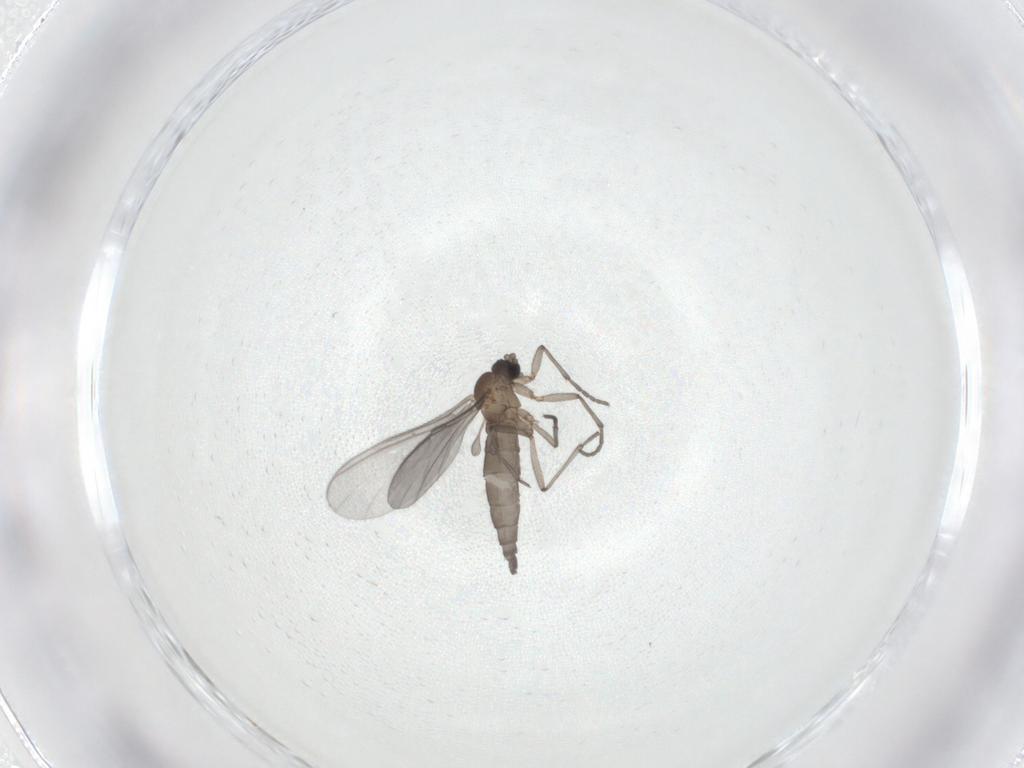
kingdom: Animalia
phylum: Arthropoda
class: Insecta
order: Diptera
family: Sciaridae
